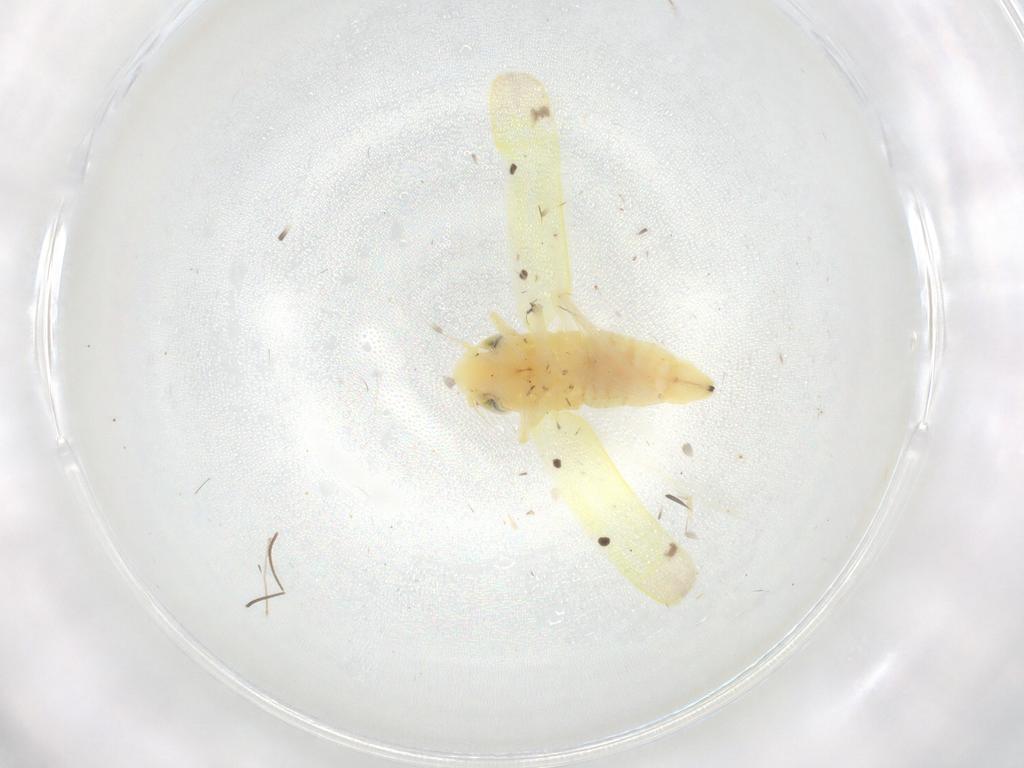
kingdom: Animalia
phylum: Arthropoda
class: Insecta
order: Hemiptera
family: Cicadellidae
